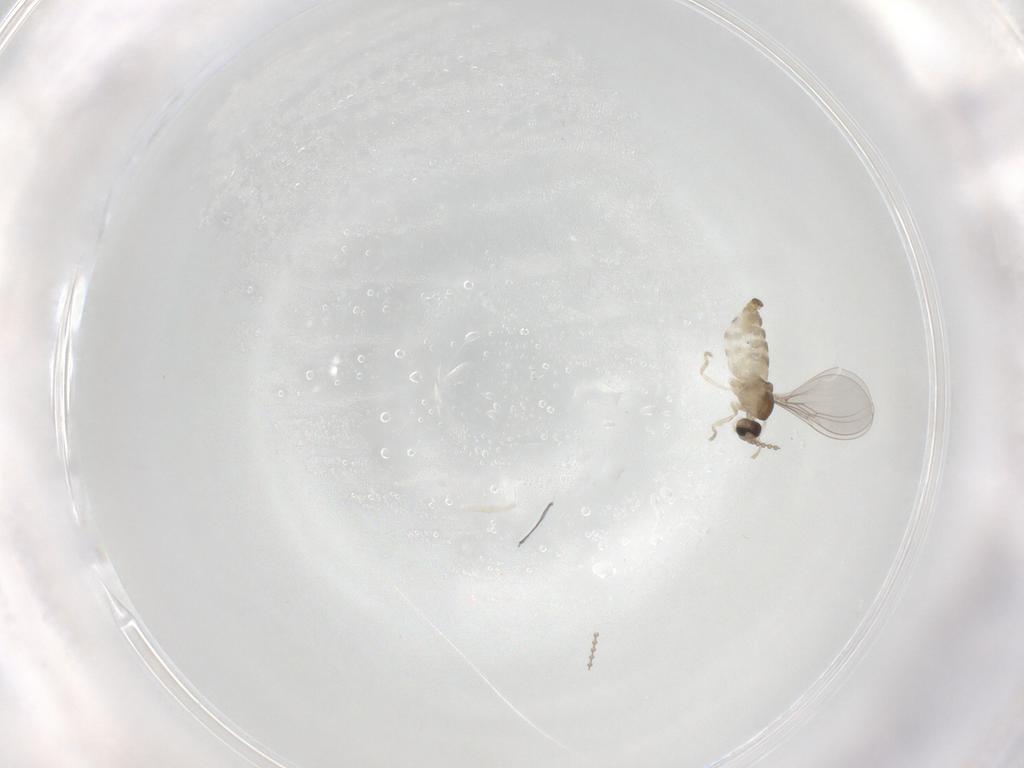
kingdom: Animalia
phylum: Arthropoda
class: Insecta
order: Diptera
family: Cecidomyiidae
